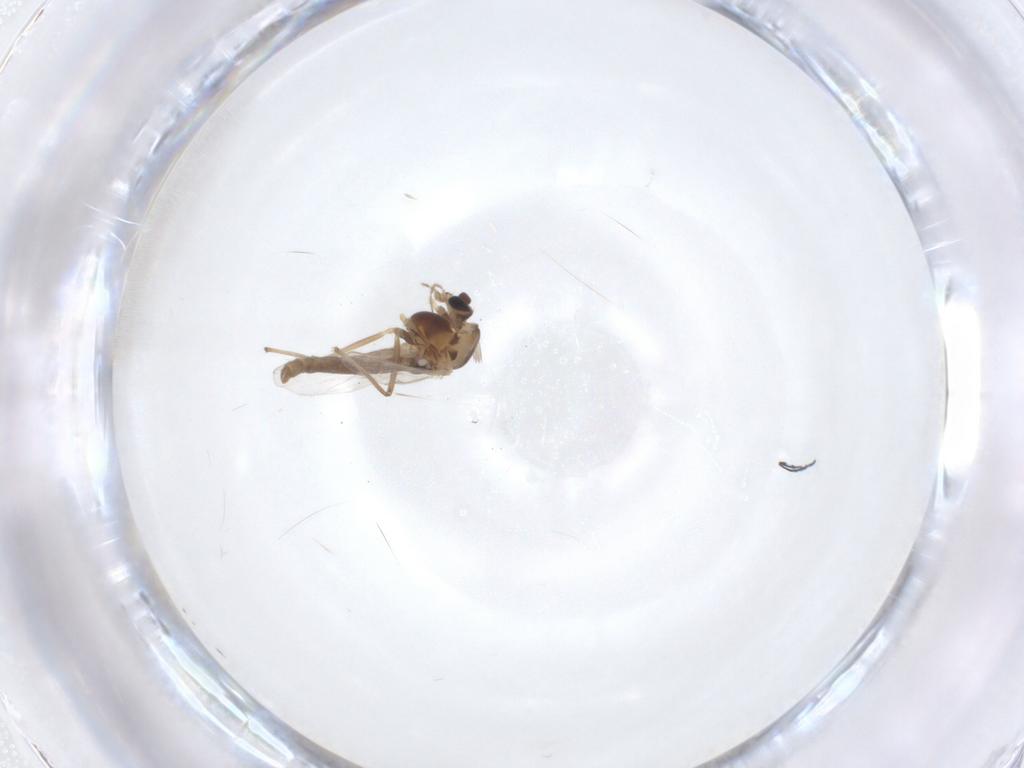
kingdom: Animalia
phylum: Arthropoda
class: Insecta
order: Diptera
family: Chironomidae
